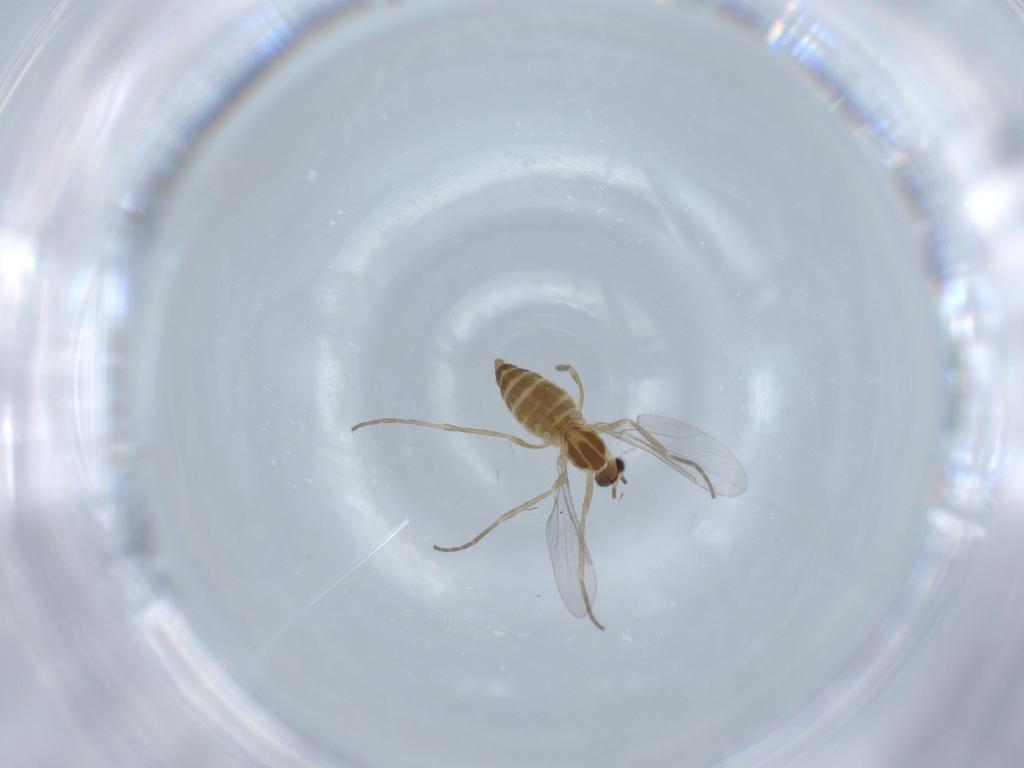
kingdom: Animalia
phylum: Arthropoda
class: Insecta
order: Diptera
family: Cecidomyiidae
